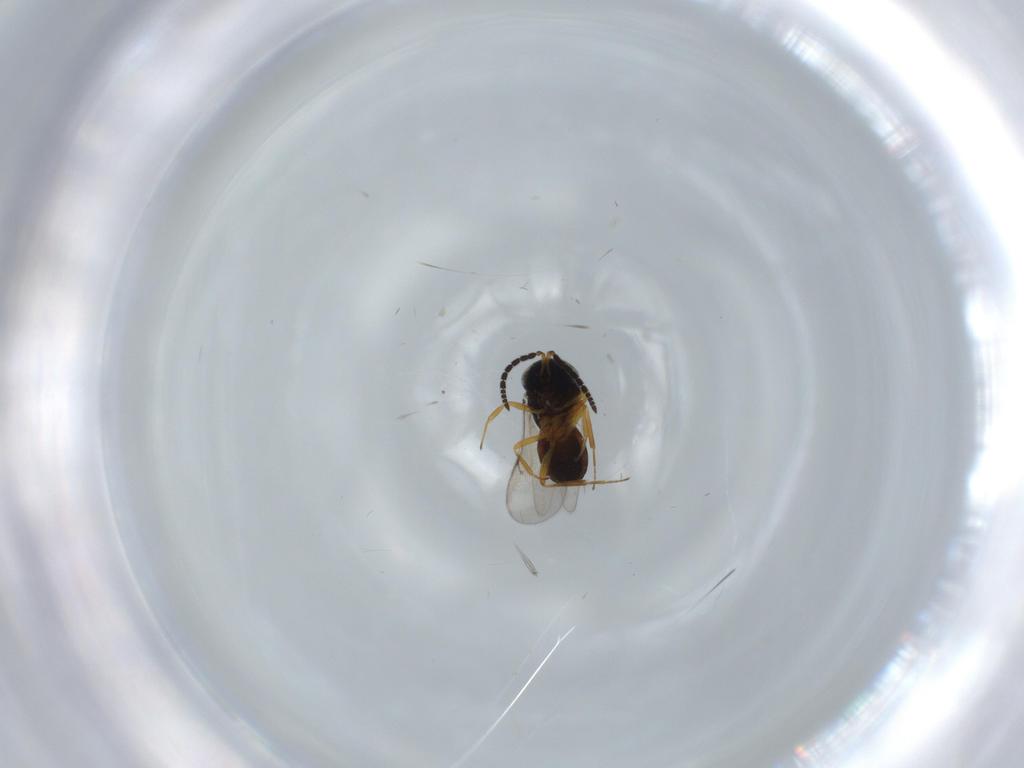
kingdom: Animalia
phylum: Arthropoda
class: Insecta
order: Hymenoptera
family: Scelionidae
